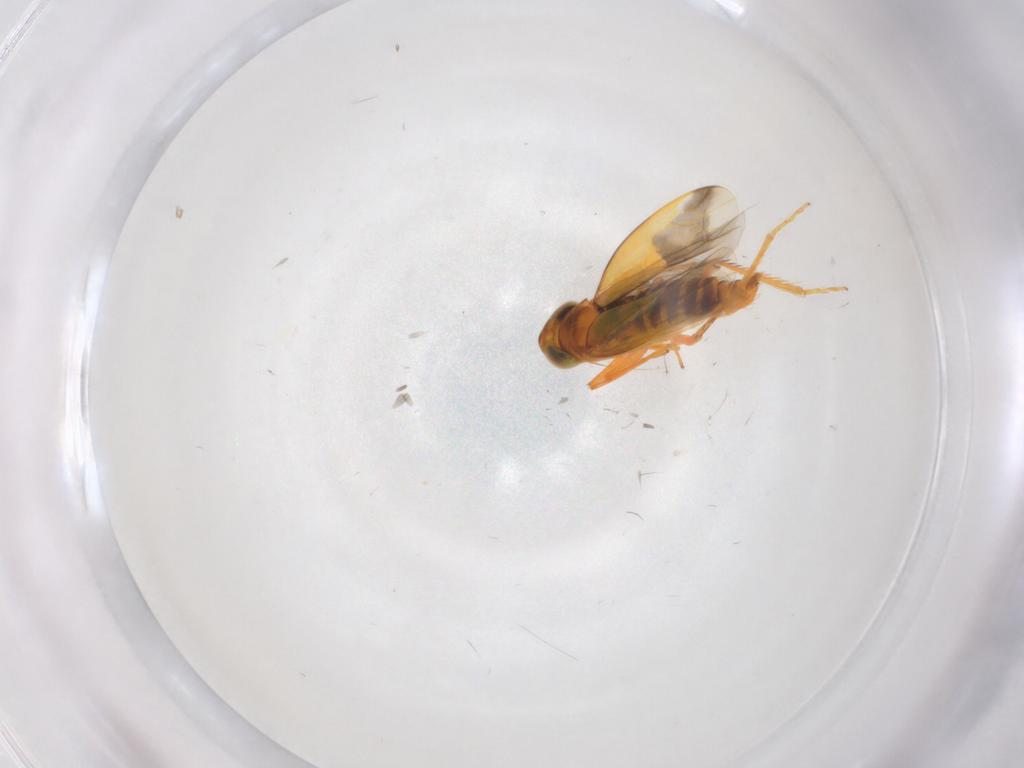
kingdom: Animalia
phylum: Arthropoda
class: Insecta
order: Hemiptera
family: Cicadellidae
